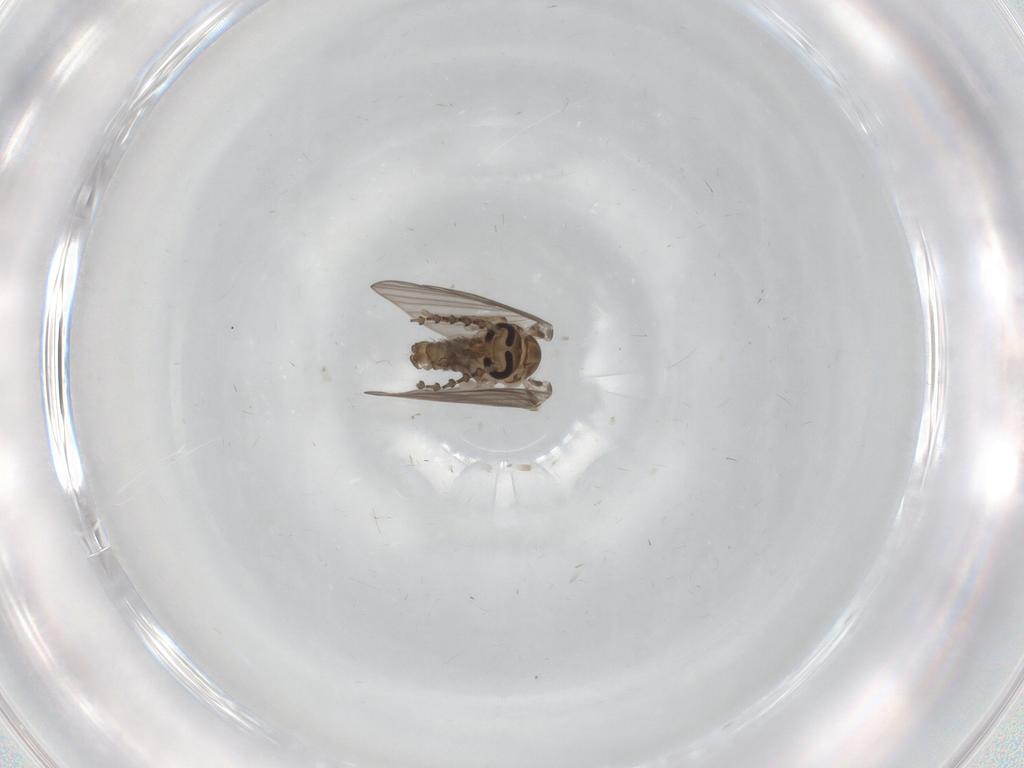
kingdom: Animalia
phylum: Arthropoda
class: Insecta
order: Diptera
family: Psychodidae
